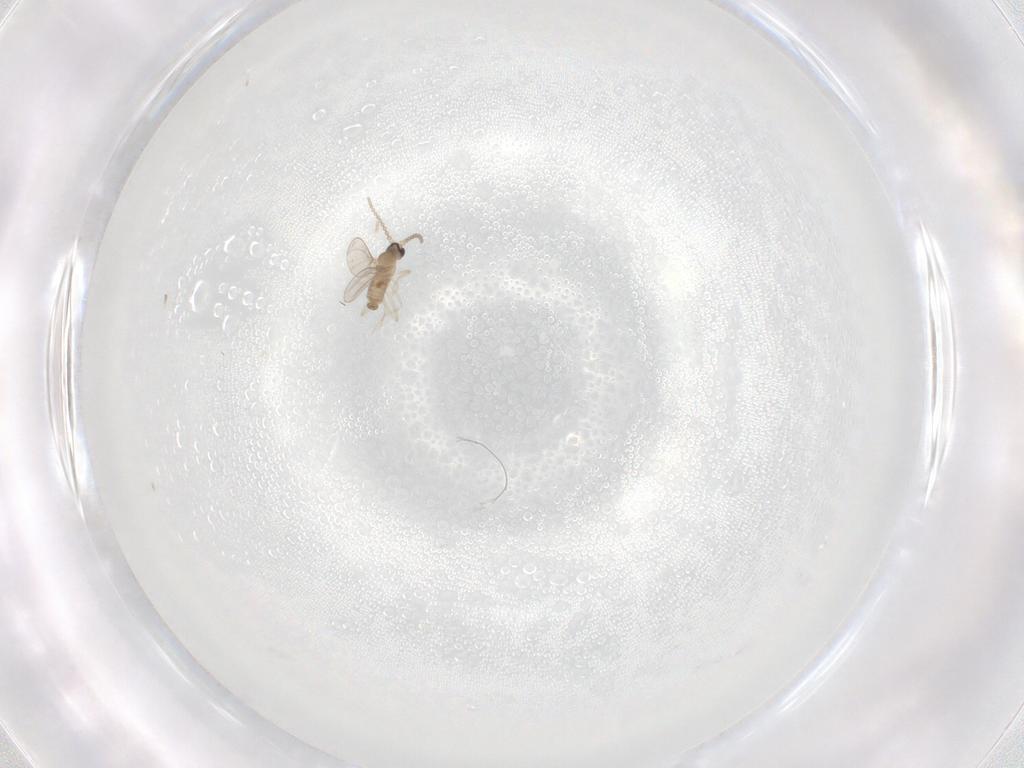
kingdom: Animalia
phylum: Arthropoda
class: Insecta
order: Diptera
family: Cecidomyiidae
